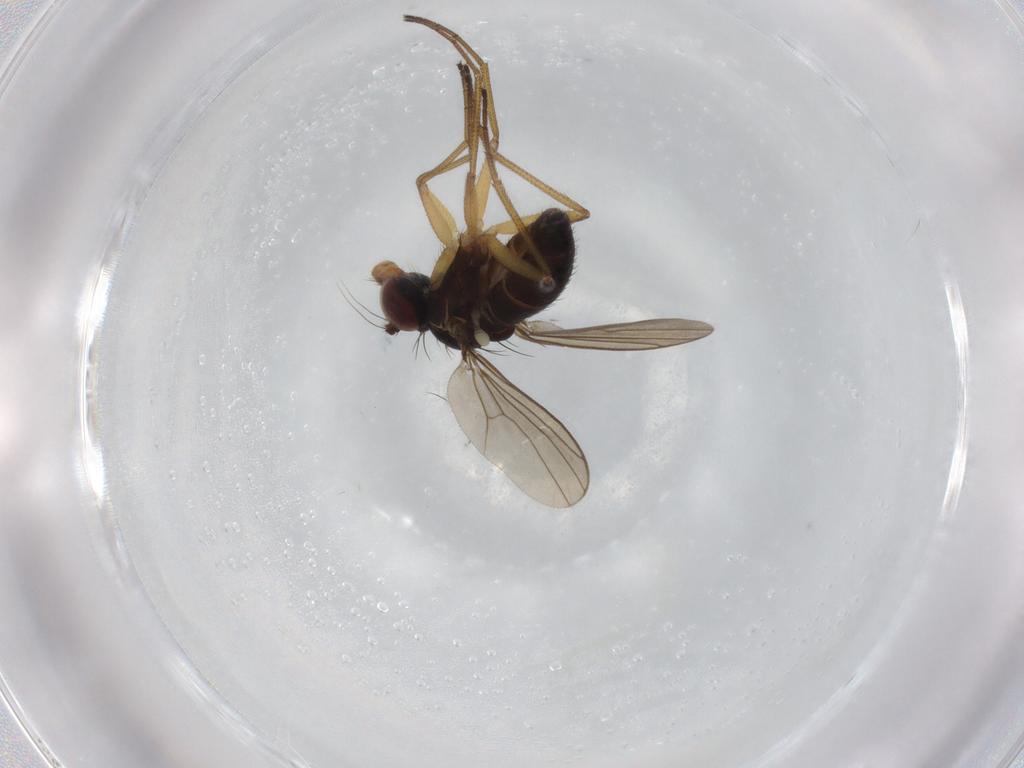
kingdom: Animalia
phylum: Arthropoda
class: Insecta
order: Diptera
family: Dolichopodidae
